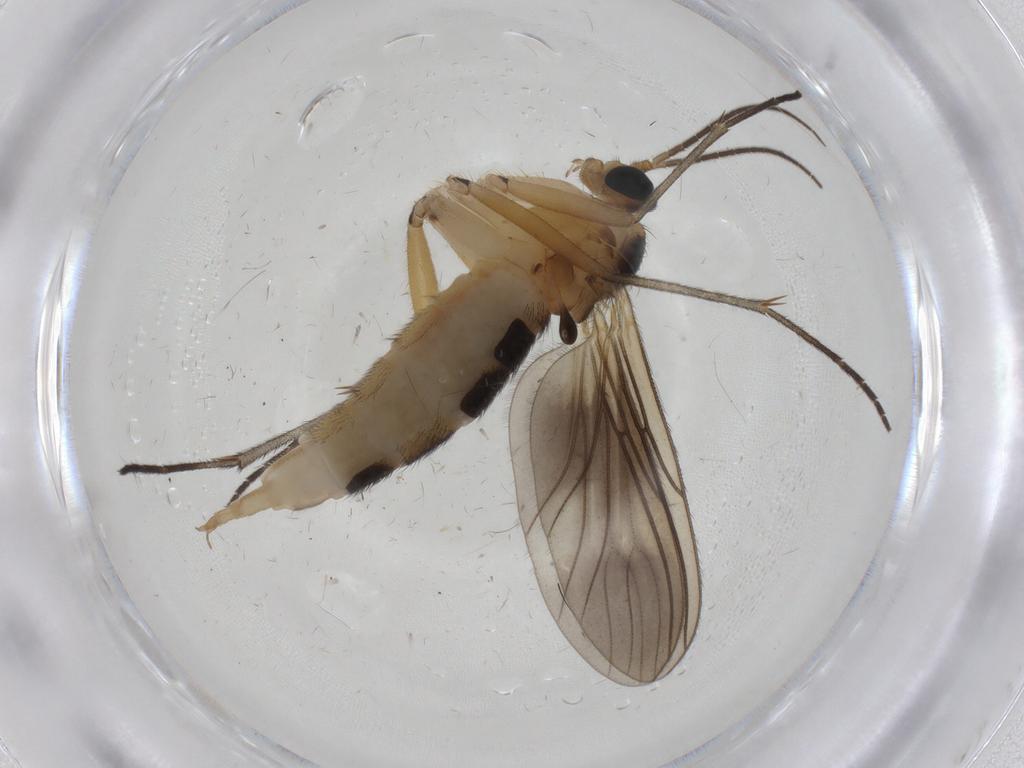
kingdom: Animalia
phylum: Arthropoda
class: Insecta
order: Diptera
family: Sciaridae
